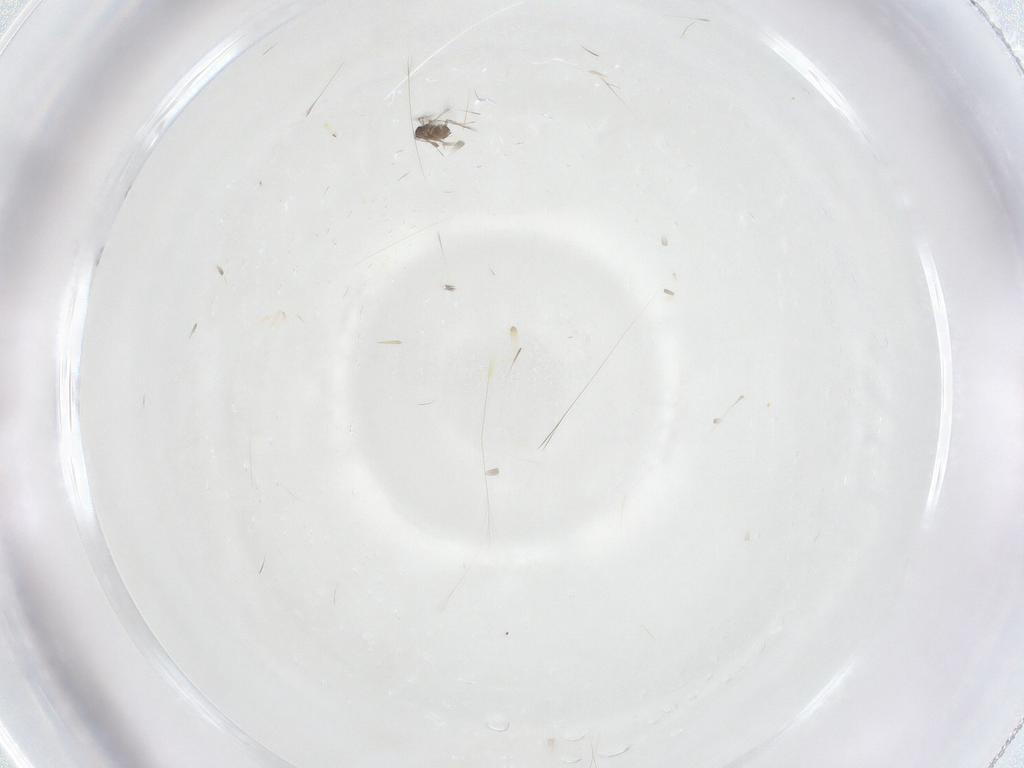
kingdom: Animalia
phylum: Arthropoda
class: Insecta
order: Hymenoptera
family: Mymaridae
